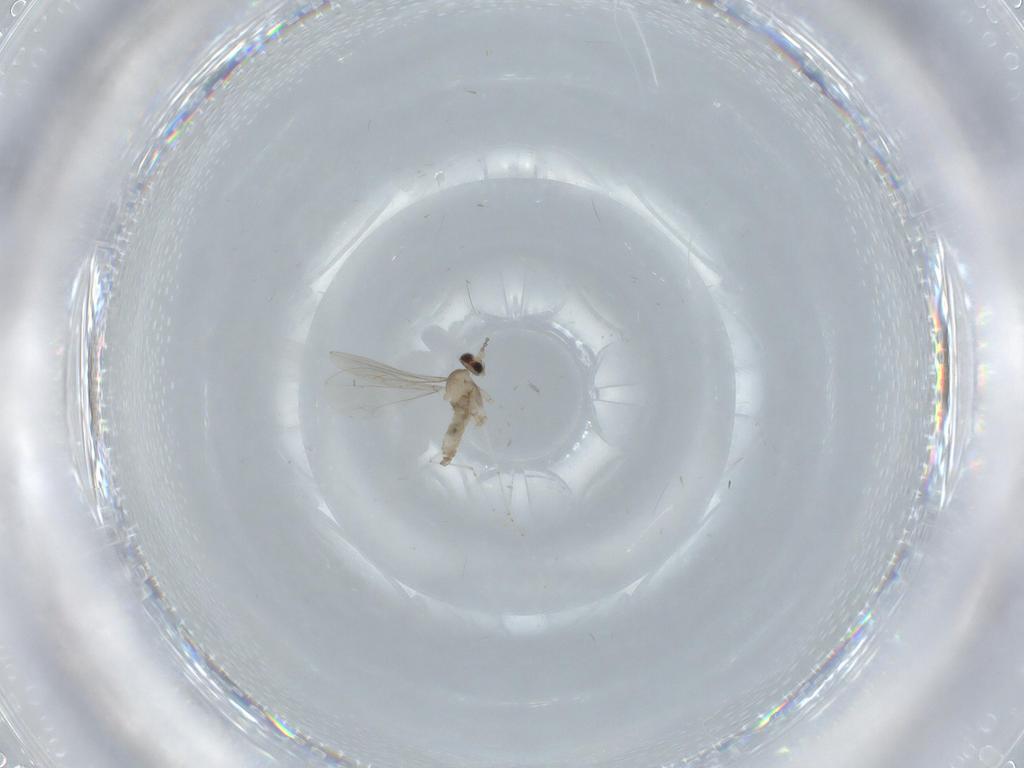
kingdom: Animalia
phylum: Arthropoda
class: Insecta
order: Diptera
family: Cecidomyiidae
